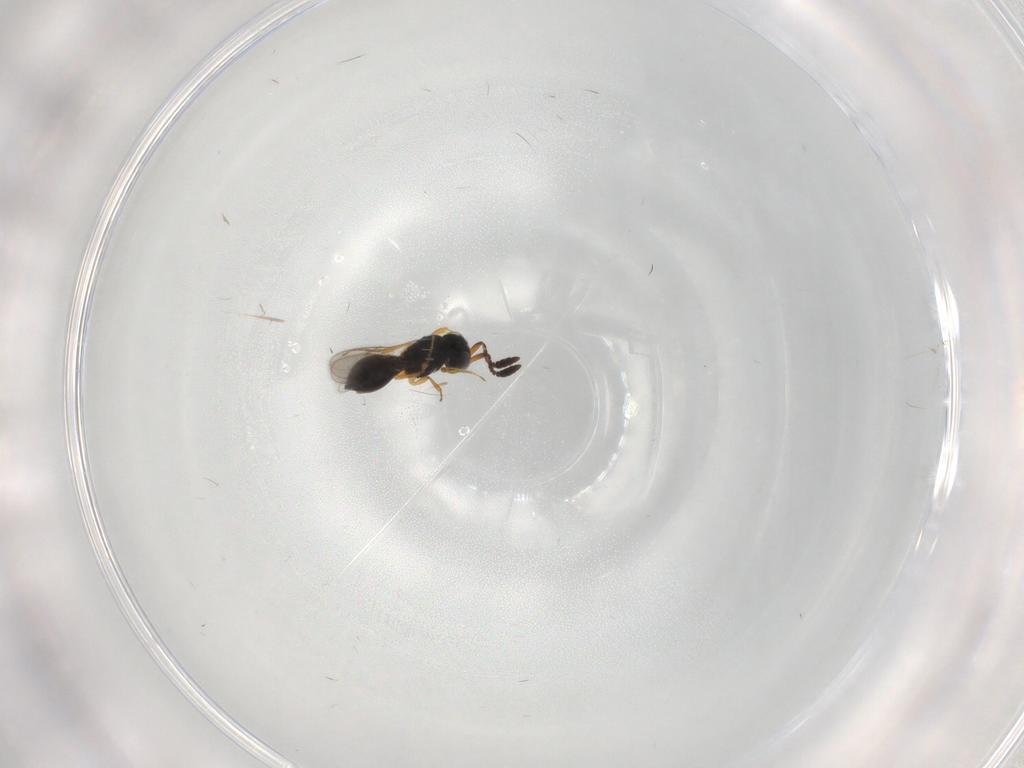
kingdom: Animalia
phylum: Arthropoda
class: Insecta
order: Hymenoptera
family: Scelionidae
